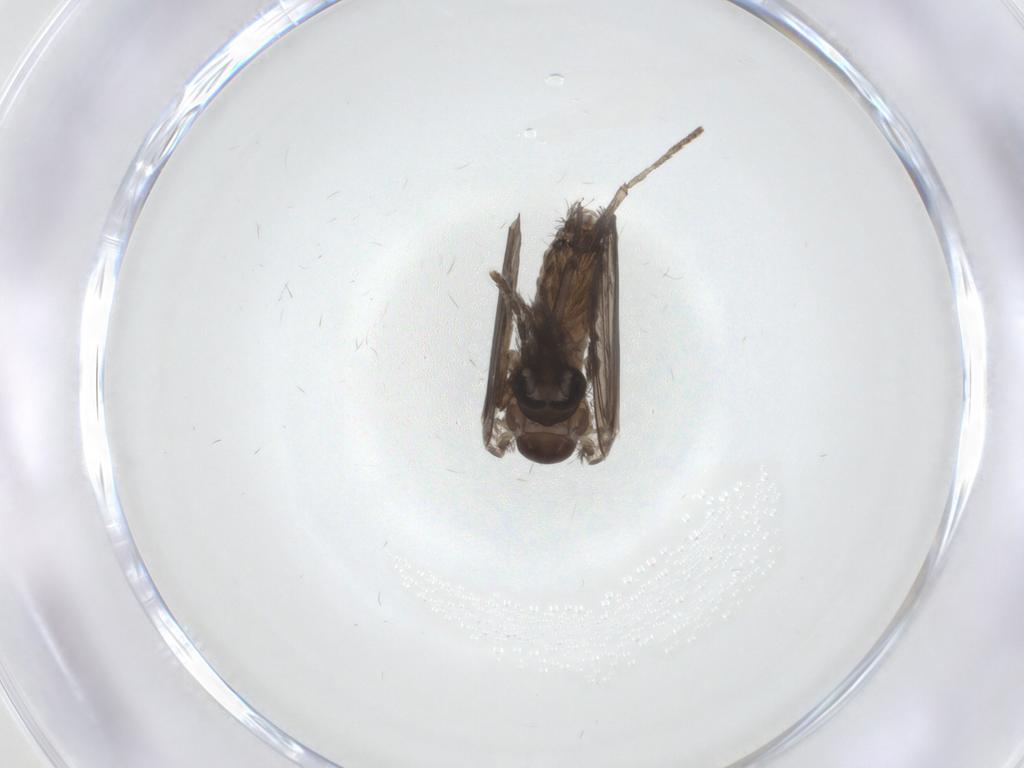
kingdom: Animalia
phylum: Arthropoda
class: Insecta
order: Diptera
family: Psychodidae
